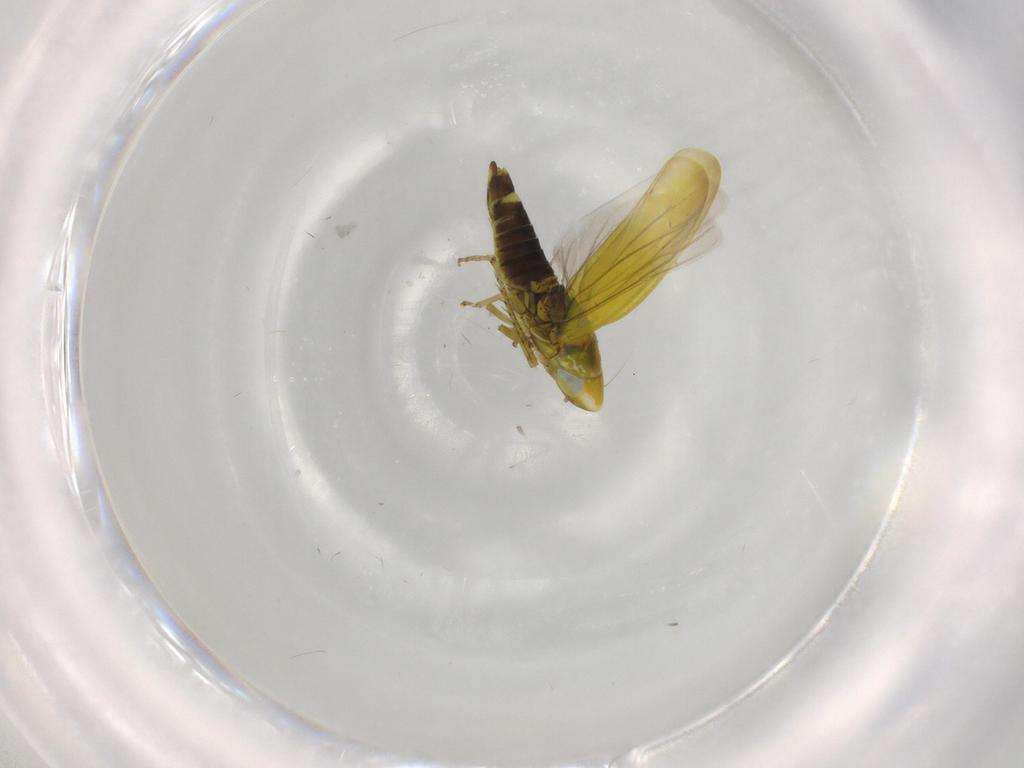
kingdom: Animalia
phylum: Arthropoda
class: Insecta
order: Hemiptera
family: Cicadellidae
